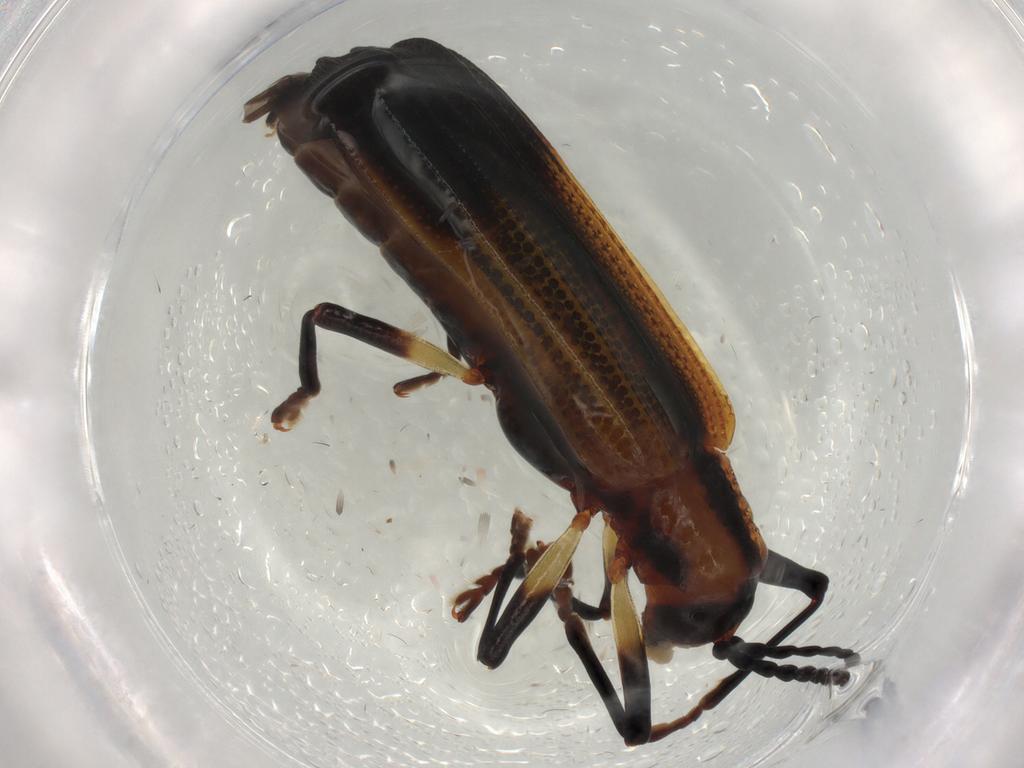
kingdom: Animalia
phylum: Arthropoda
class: Insecta
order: Coleoptera
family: Chrysomelidae
